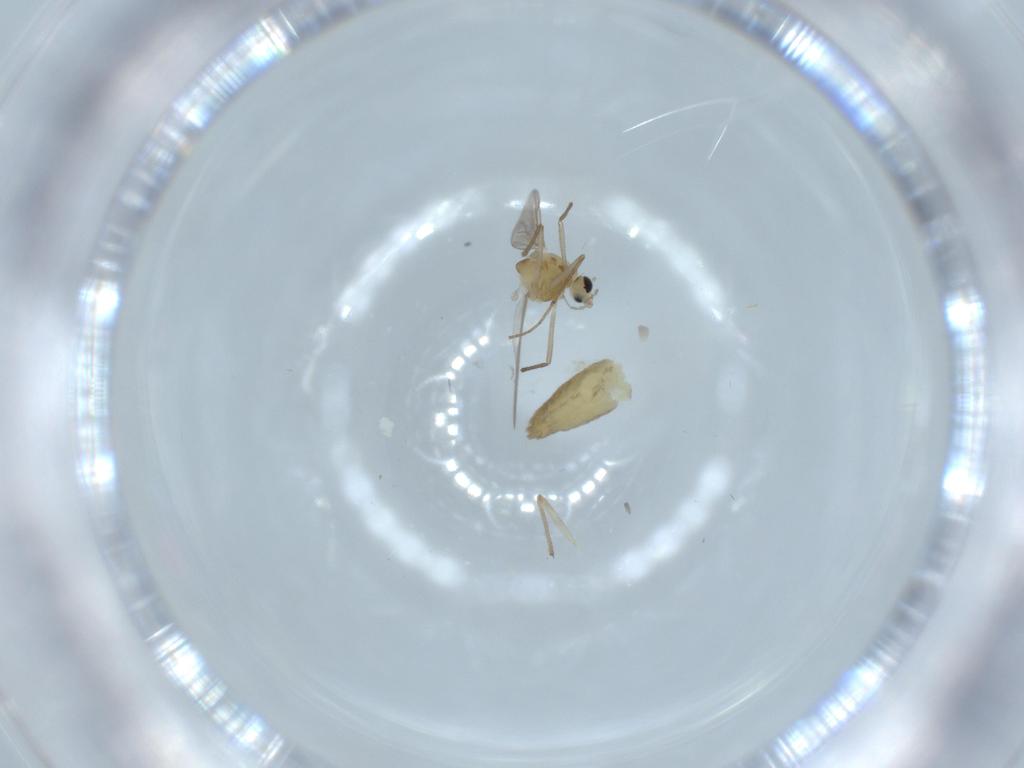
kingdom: Animalia
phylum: Arthropoda
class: Insecta
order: Diptera
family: Chironomidae
